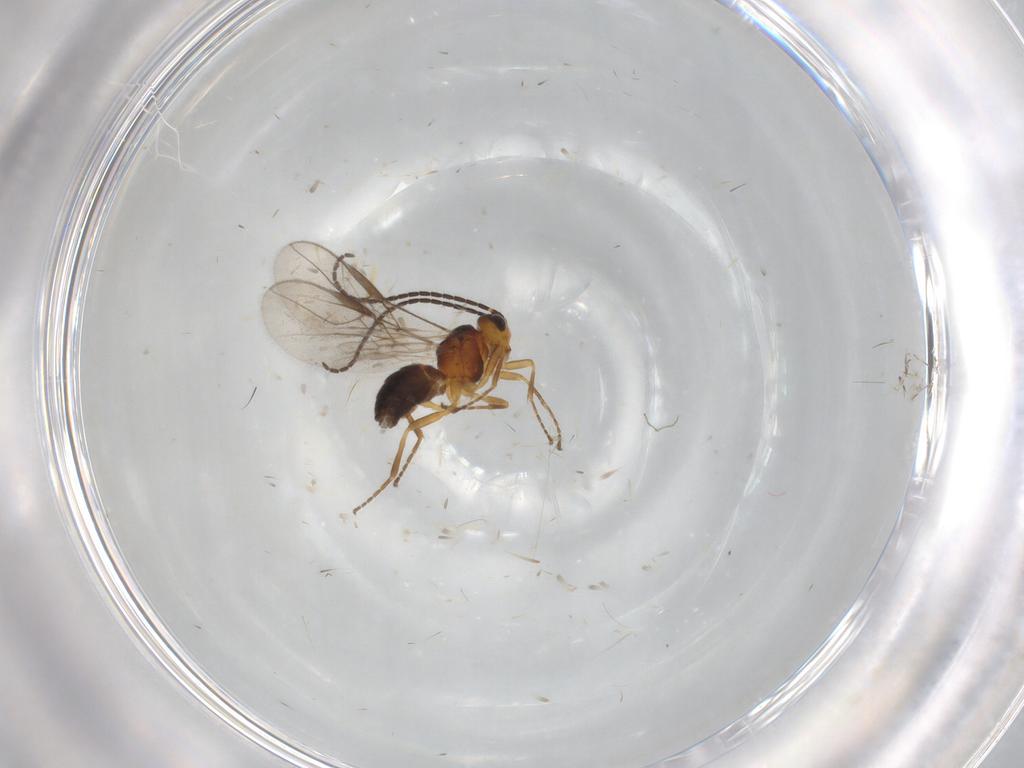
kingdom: Animalia
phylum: Arthropoda
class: Insecta
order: Hymenoptera
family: Braconidae
